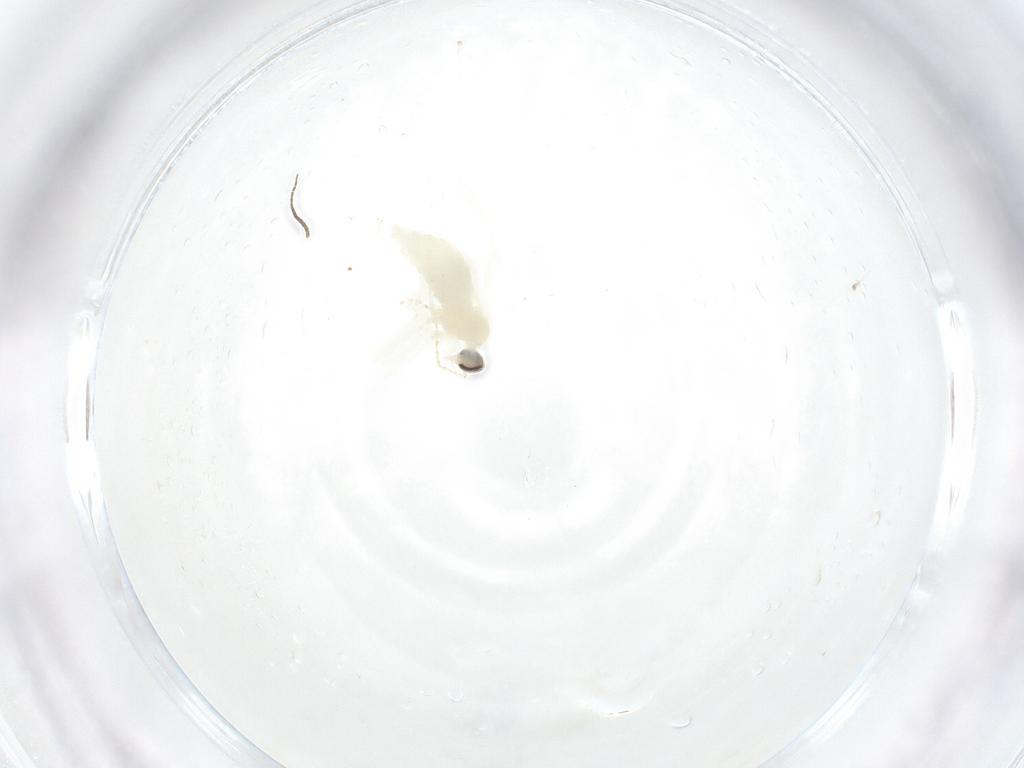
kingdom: Animalia
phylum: Arthropoda
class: Insecta
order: Diptera
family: Cecidomyiidae
